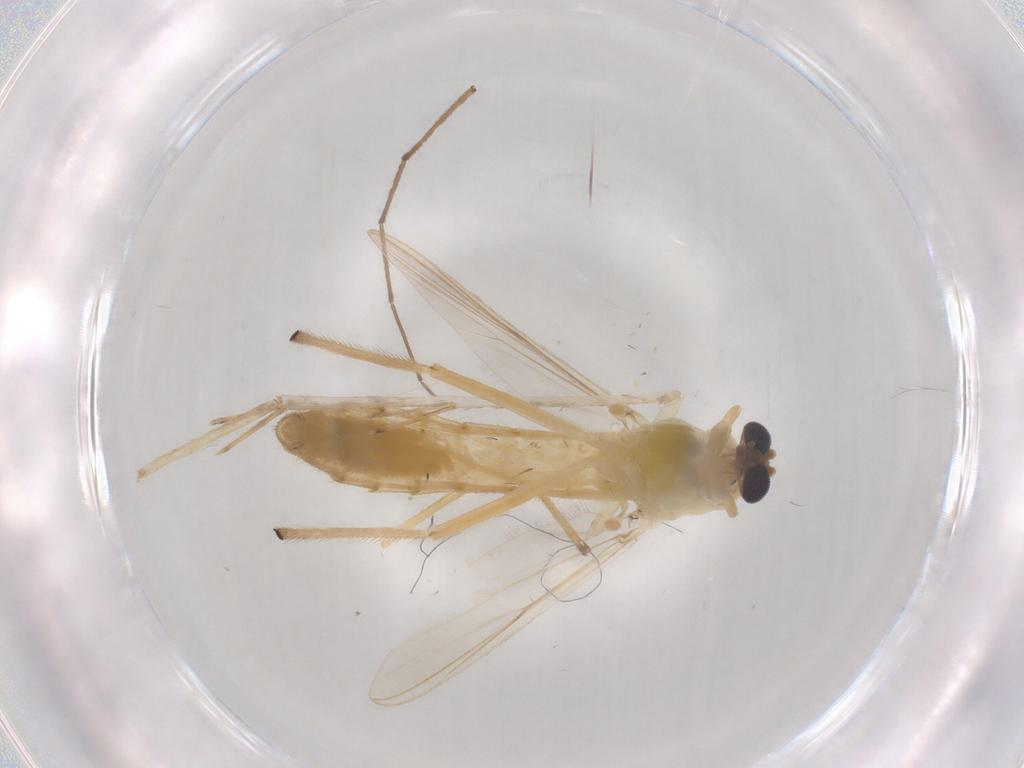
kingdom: Animalia
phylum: Arthropoda
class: Insecta
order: Diptera
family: Chironomidae
